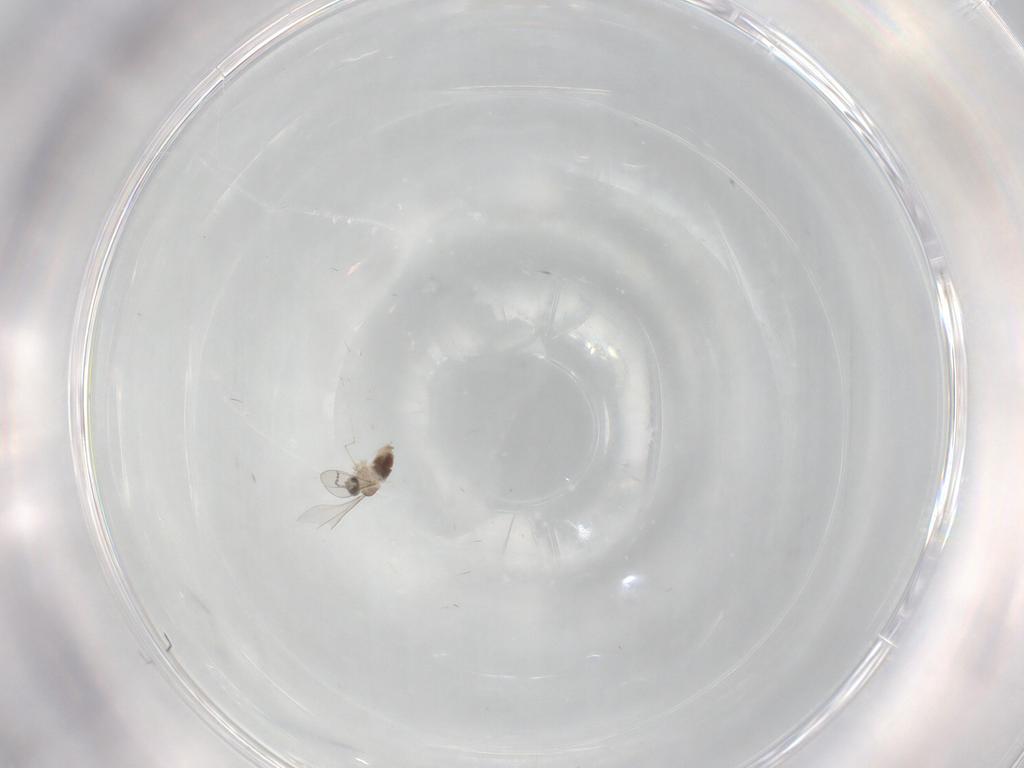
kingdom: Animalia
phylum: Arthropoda
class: Insecta
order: Diptera
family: Cecidomyiidae
